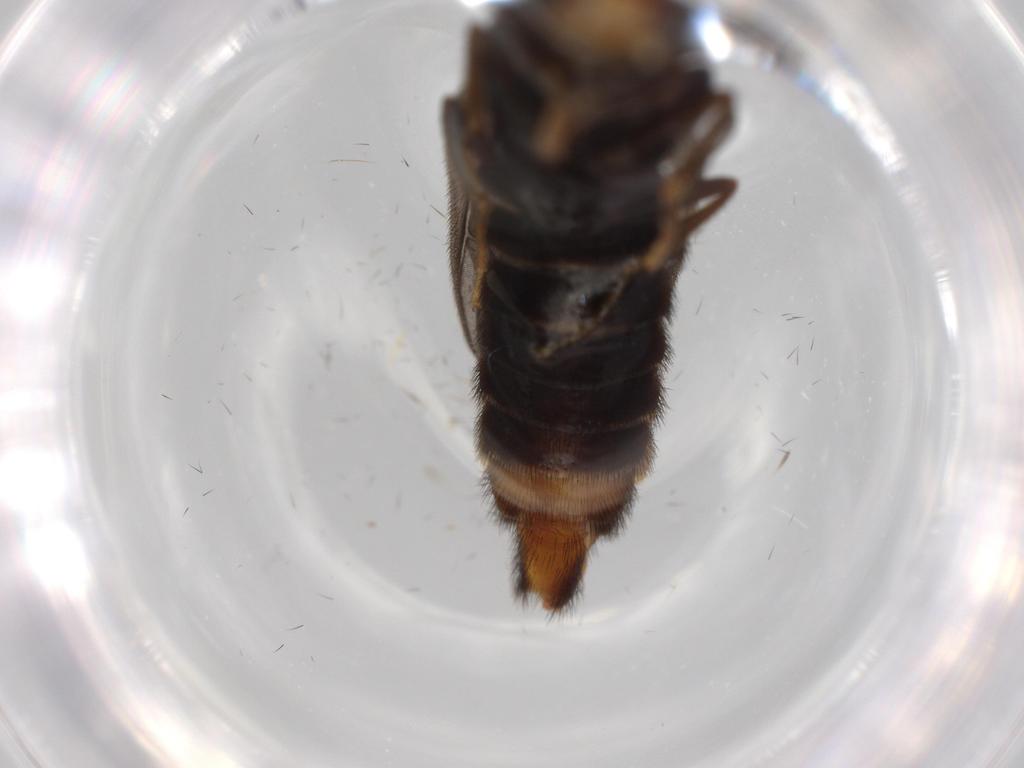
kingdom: Animalia
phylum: Arthropoda
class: Insecta
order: Coleoptera
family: Phengodidae
